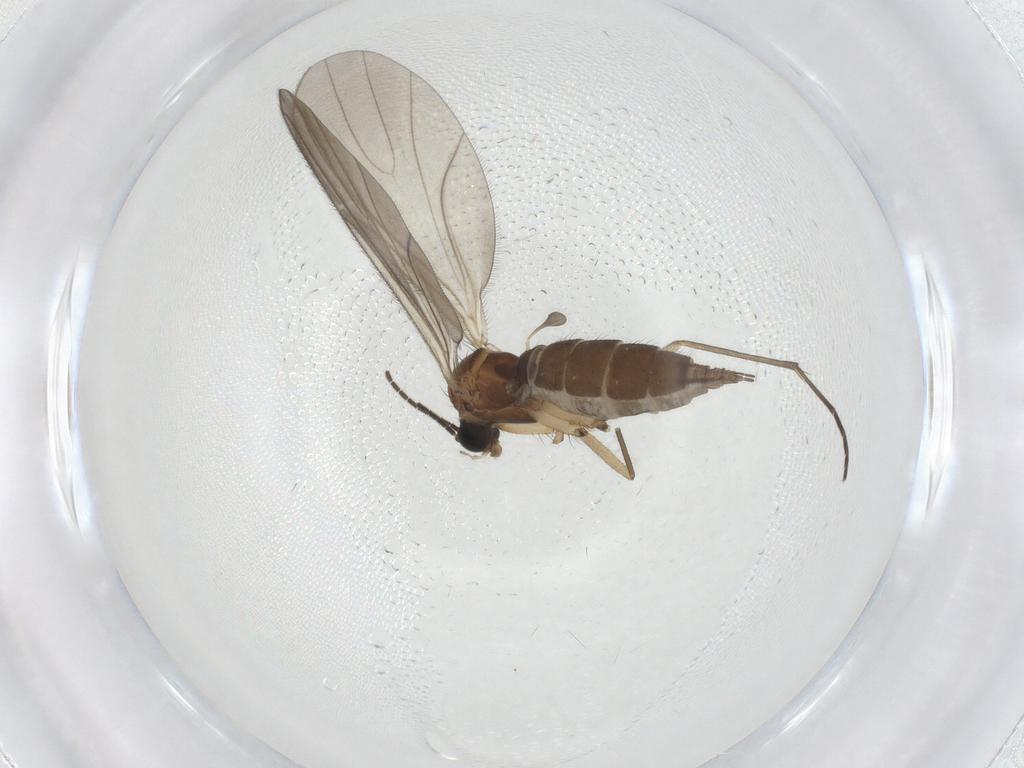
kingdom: Animalia
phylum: Arthropoda
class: Insecta
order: Diptera
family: Sciaridae
